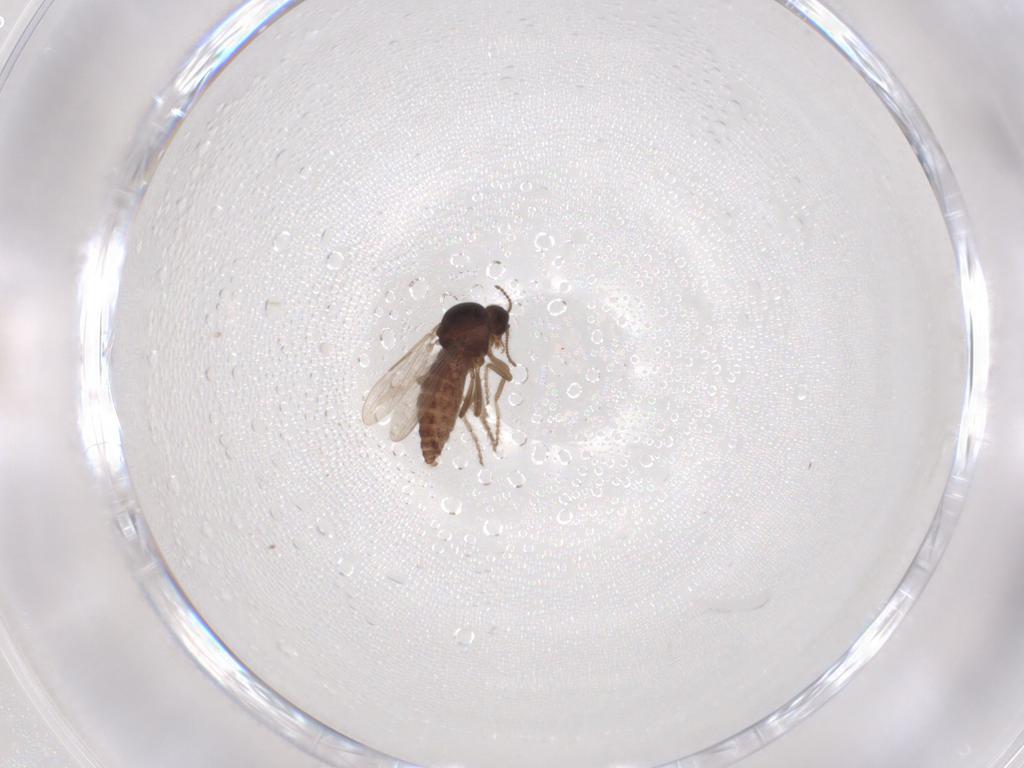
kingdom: Animalia
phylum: Arthropoda
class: Insecta
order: Diptera
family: Ceratopogonidae
